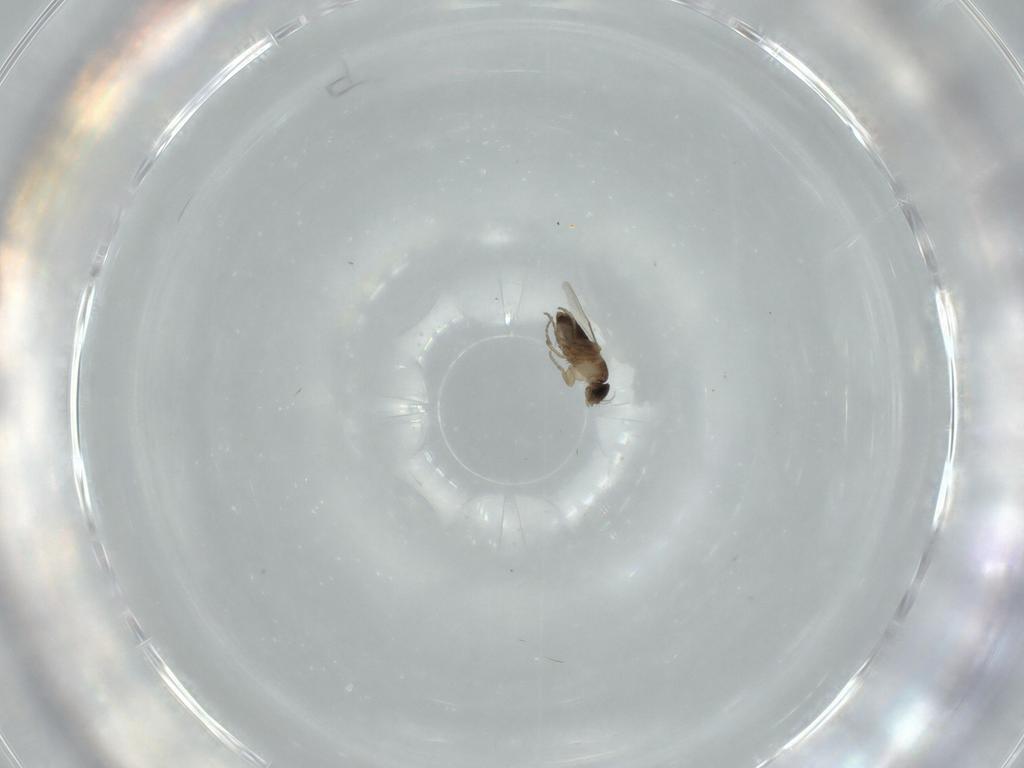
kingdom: Animalia
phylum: Arthropoda
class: Insecta
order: Diptera
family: Phoridae
